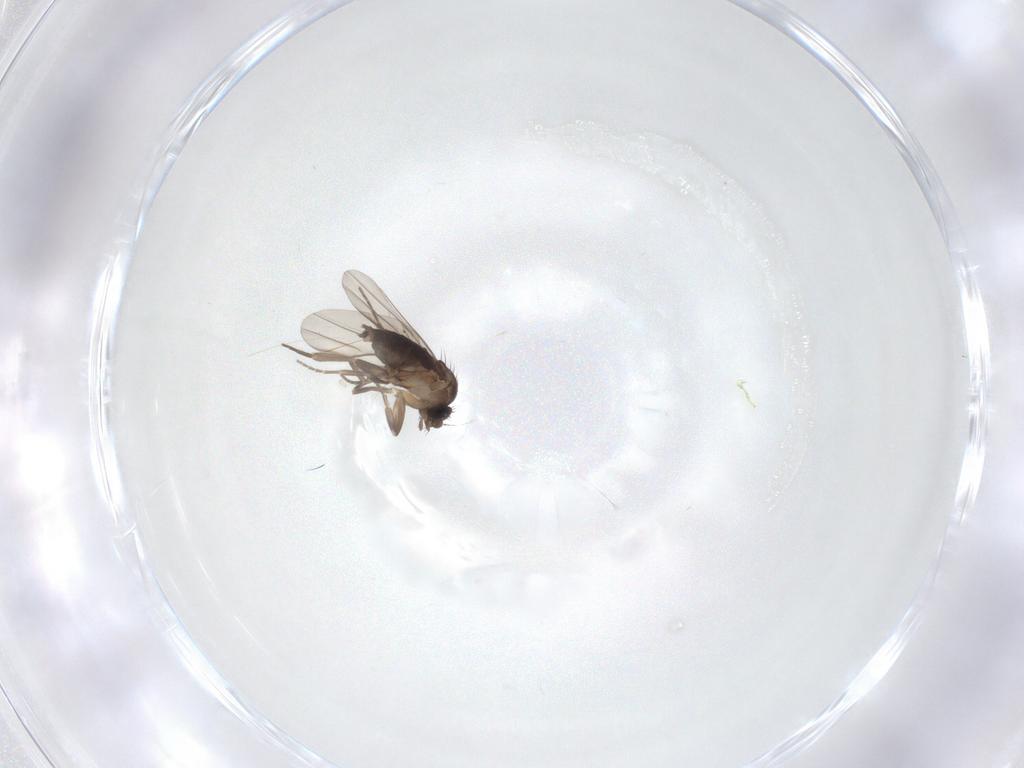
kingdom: Animalia
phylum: Arthropoda
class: Insecta
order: Diptera
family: Phoridae
